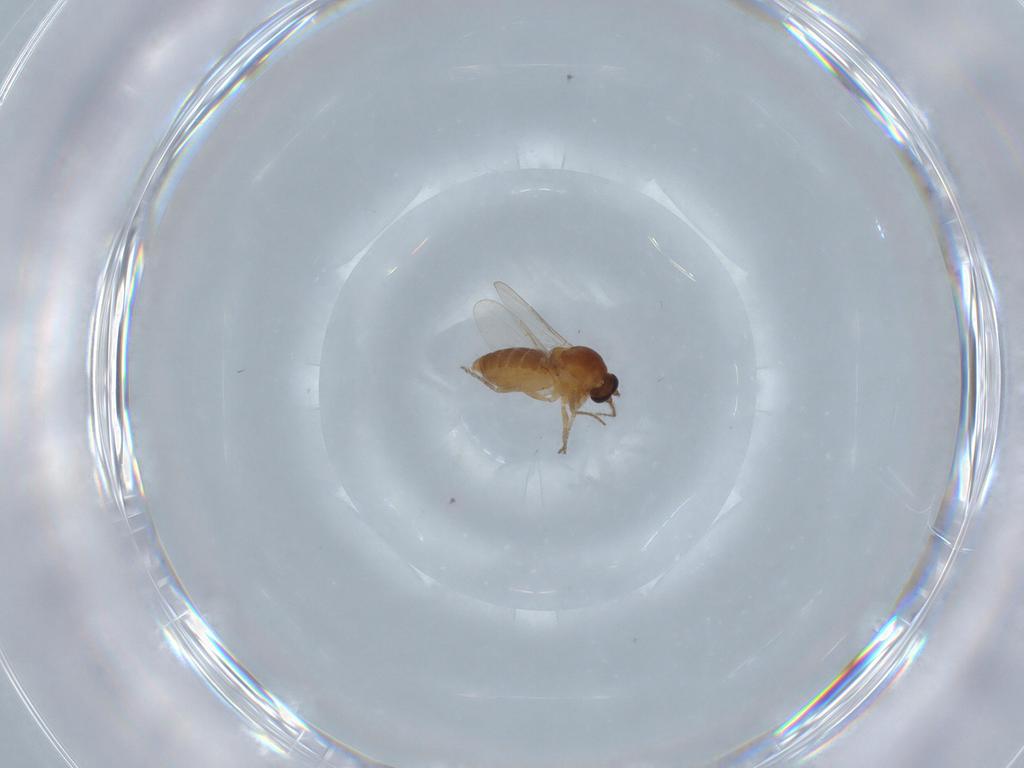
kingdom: Animalia
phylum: Arthropoda
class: Insecta
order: Diptera
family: Ceratopogonidae
